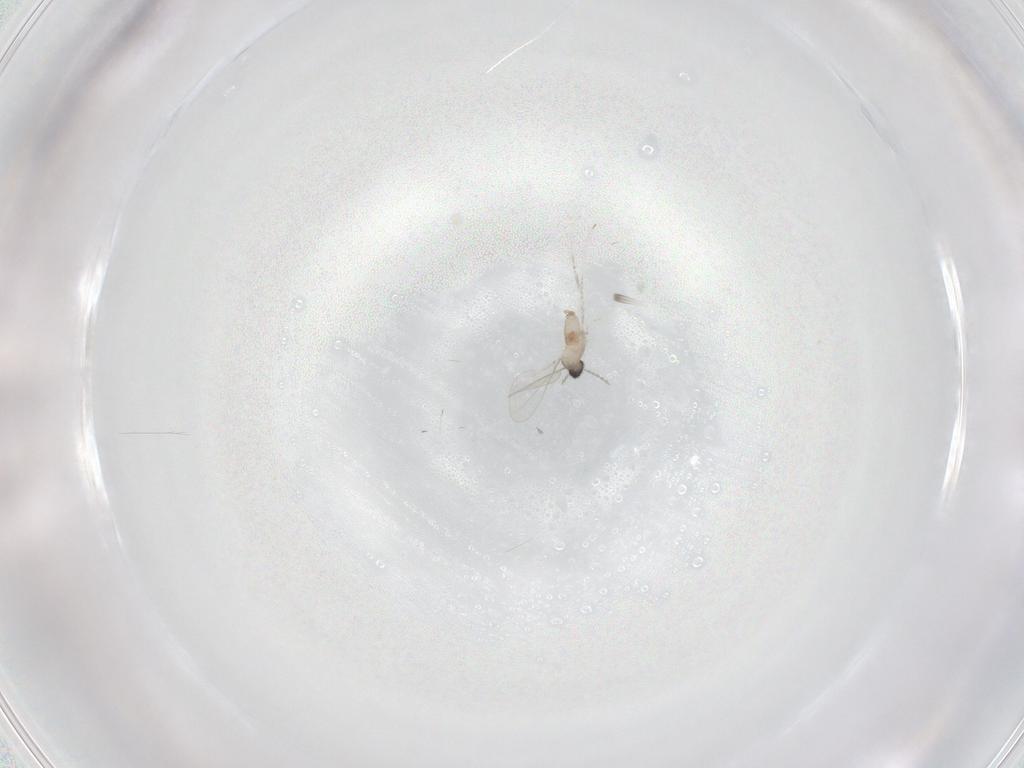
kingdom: Animalia
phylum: Arthropoda
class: Insecta
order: Diptera
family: Cecidomyiidae
